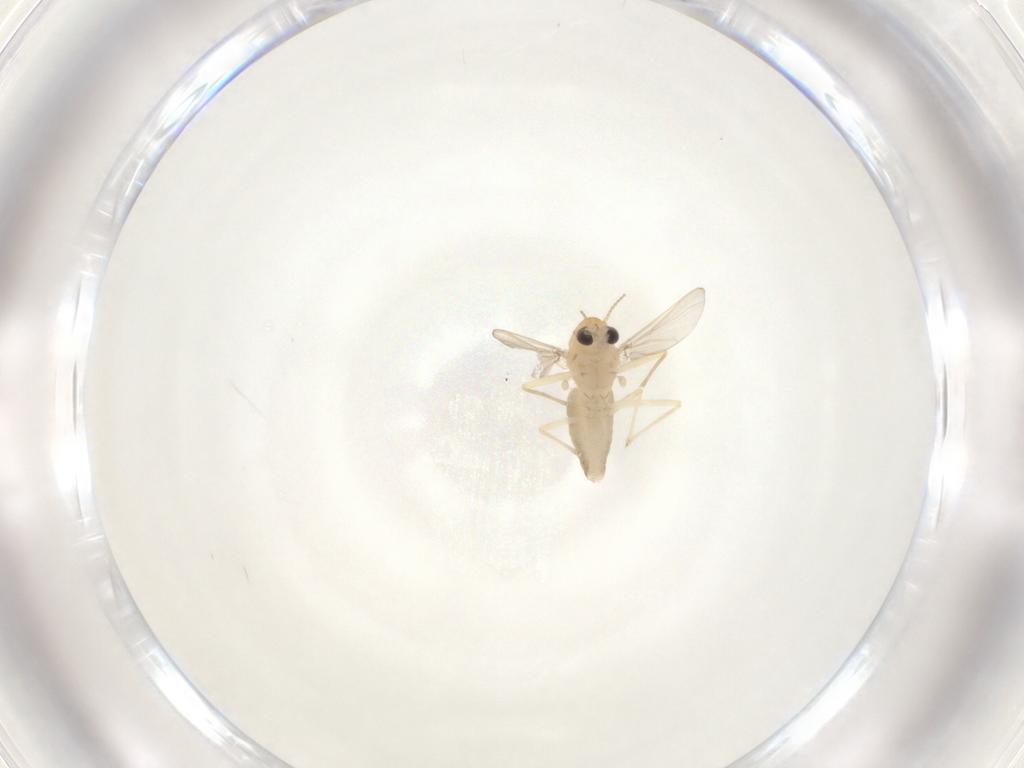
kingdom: Animalia
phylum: Arthropoda
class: Insecta
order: Diptera
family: Chironomidae
